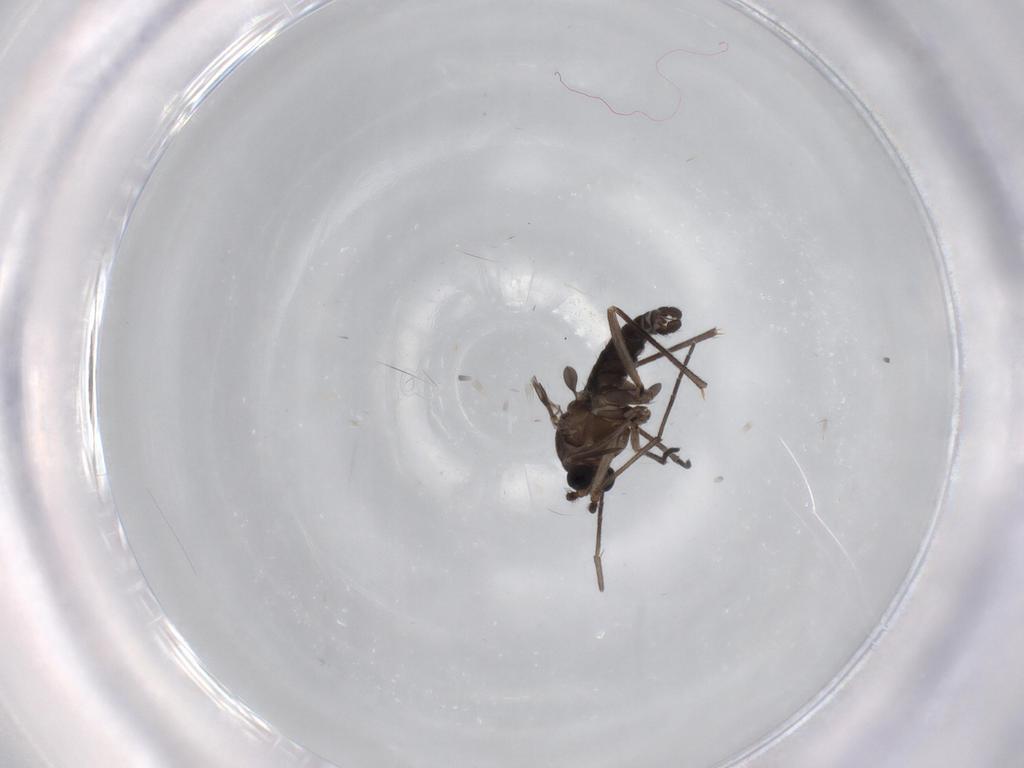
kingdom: Animalia
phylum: Arthropoda
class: Insecta
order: Diptera
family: Sciaridae
